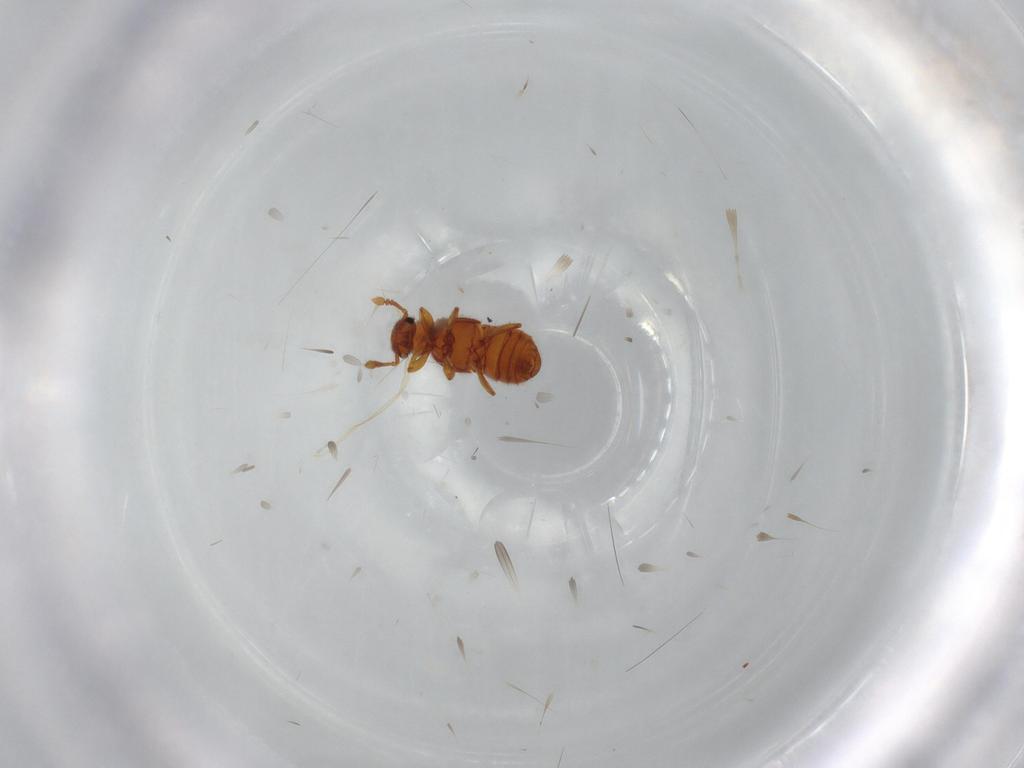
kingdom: Animalia
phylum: Arthropoda
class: Insecta
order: Coleoptera
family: Staphylinidae
